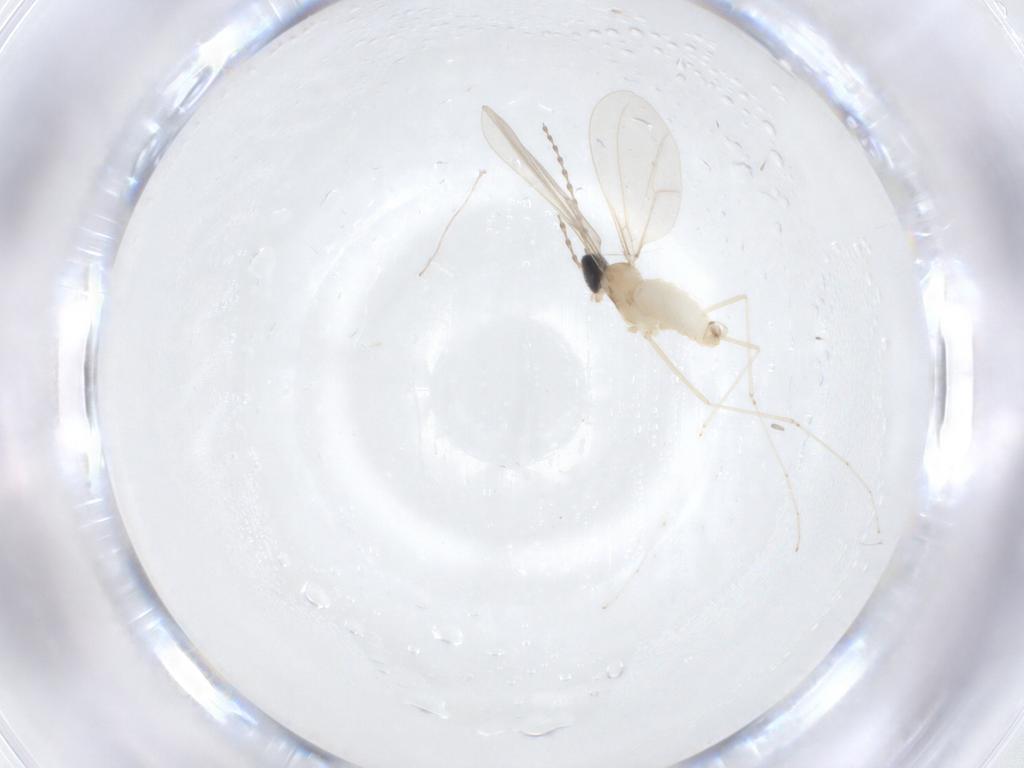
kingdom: Animalia
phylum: Arthropoda
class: Insecta
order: Diptera
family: Cecidomyiidae
